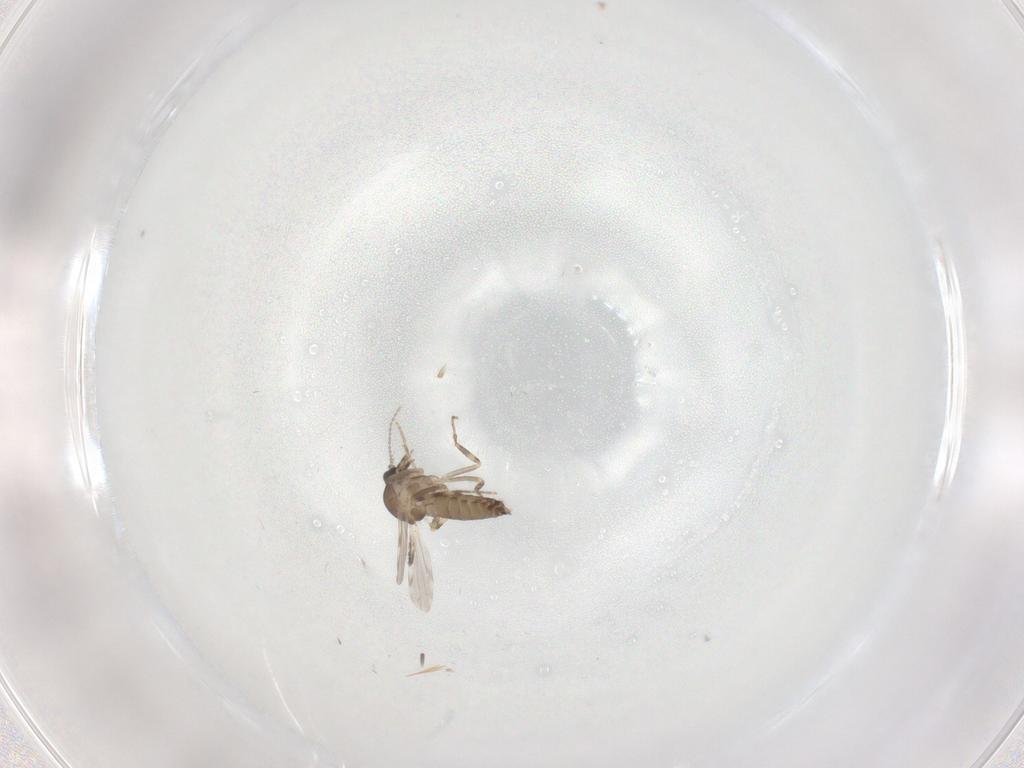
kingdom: Animalia
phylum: Arthropoda
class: Insecta
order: Diptera
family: Ceratopogonidae
